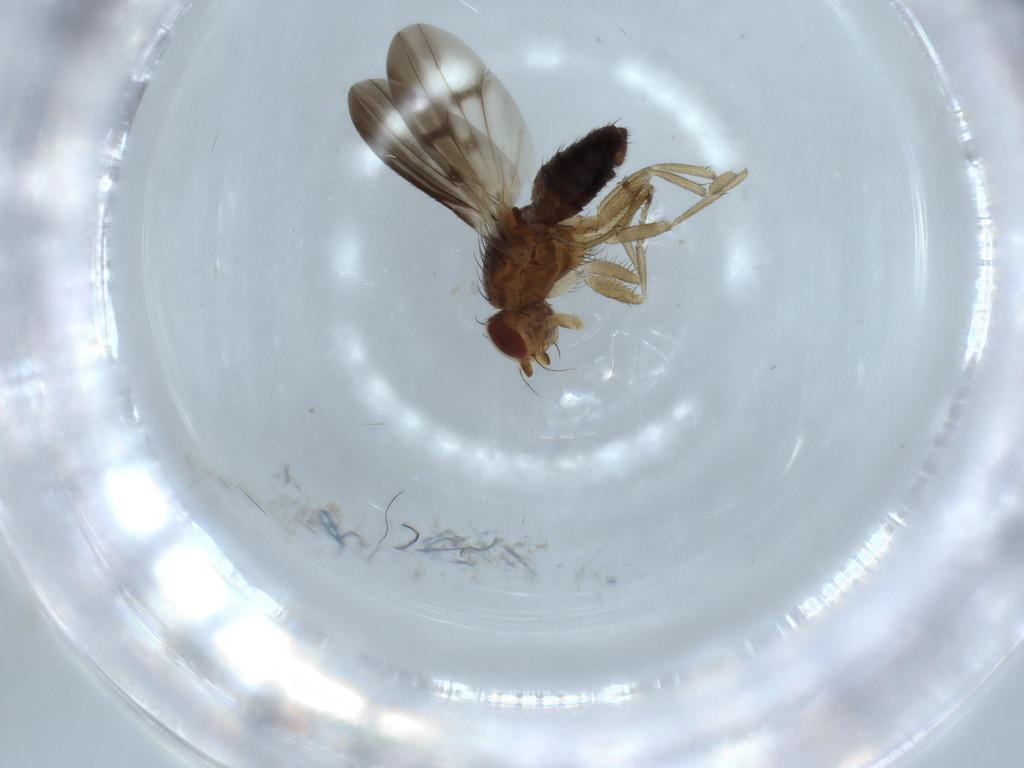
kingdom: Animalia
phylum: Arthropoda
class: Insecta
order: Diptera
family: Heleomyzidae
